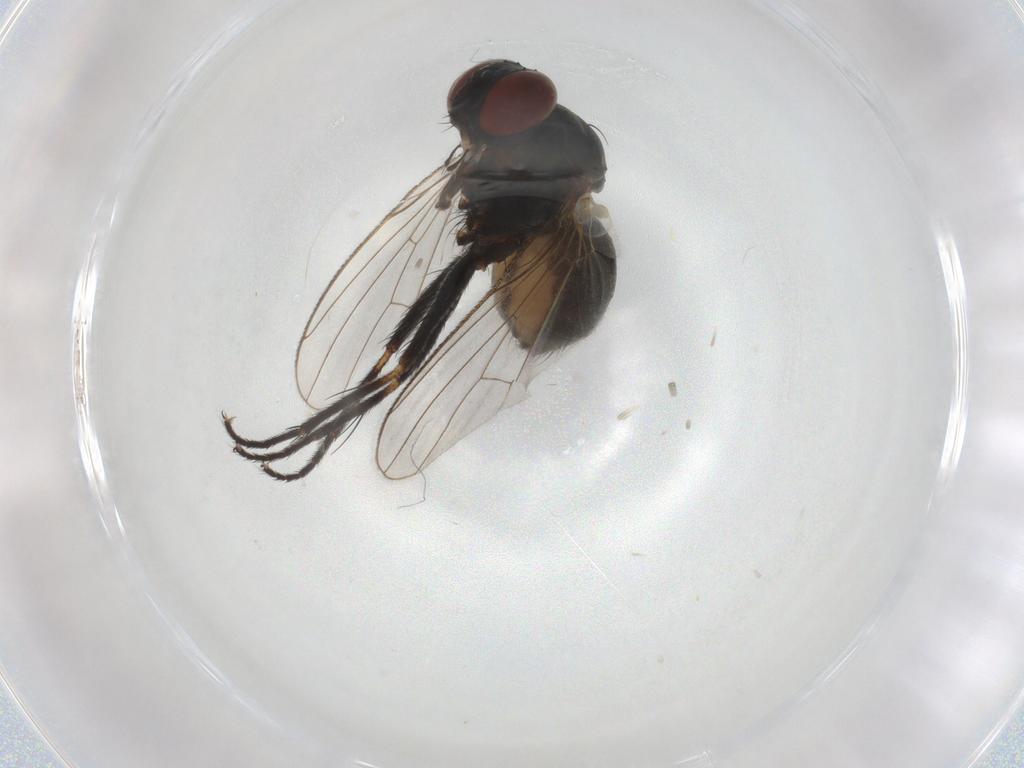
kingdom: Animalia
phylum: Arthropoda
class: Insecta
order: Diptera
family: Muscidae
